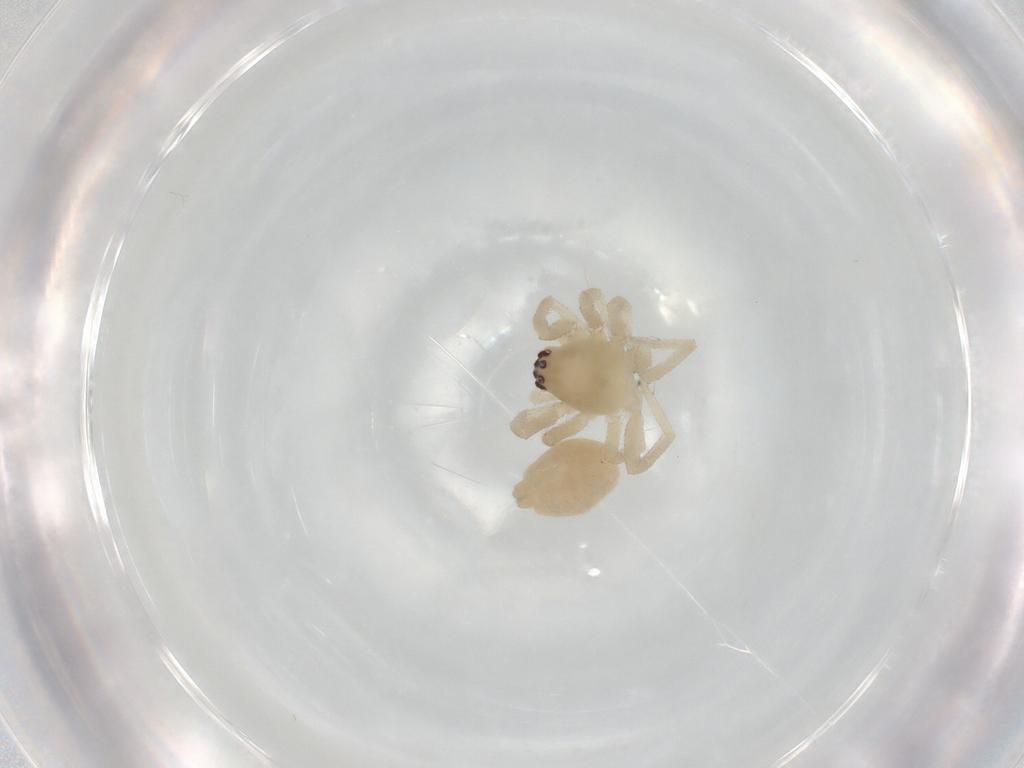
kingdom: Animalia
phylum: Arthropoda
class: Arachnida
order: Araneae
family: Cheiracanthiidae
